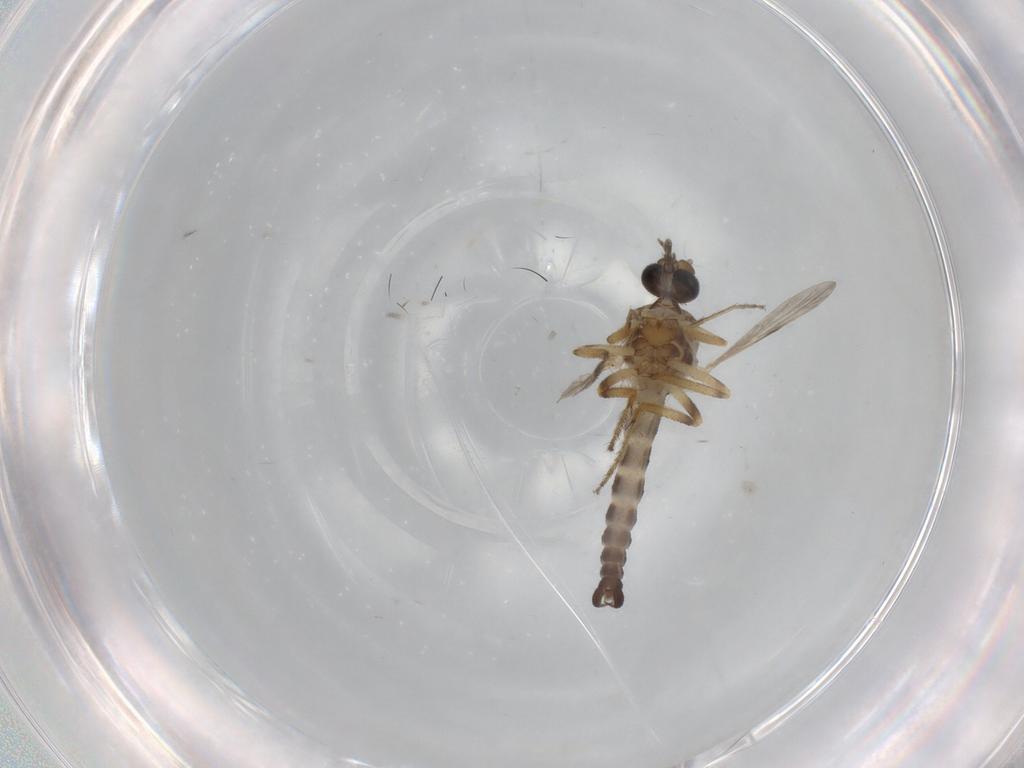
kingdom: Animalia
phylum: Arthropoda
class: Insecta
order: Diptera
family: Ceratopogonidae
